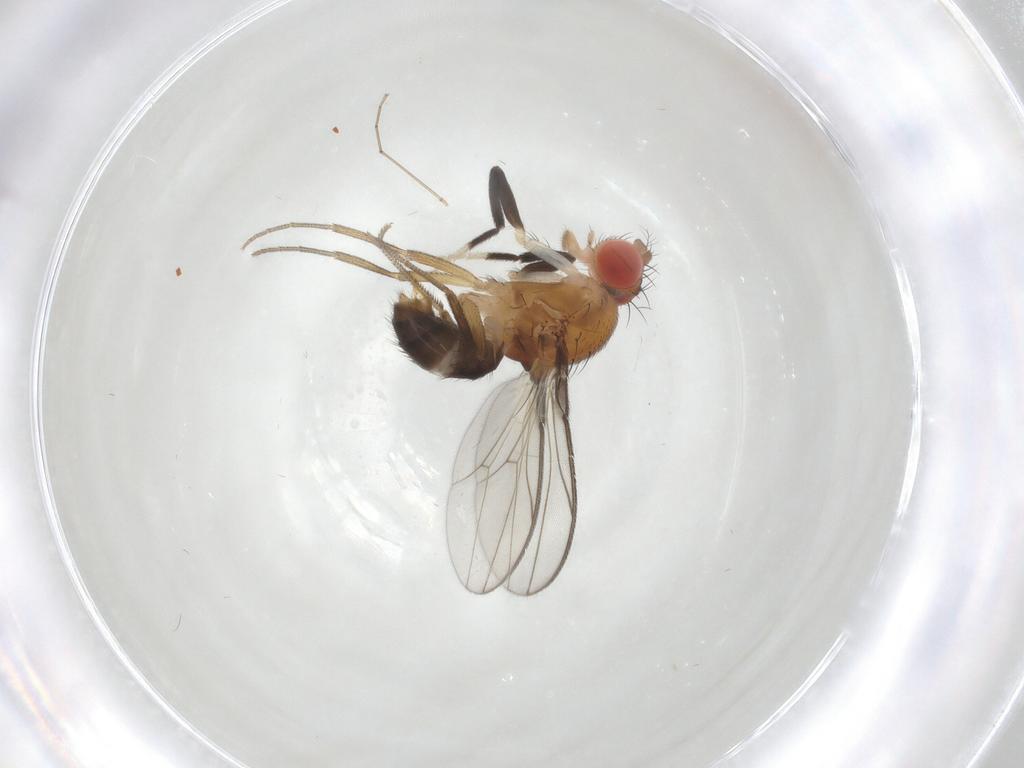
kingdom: Animalia
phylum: Arthropoda
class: Insecta
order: Diptera
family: Drosophilidae
